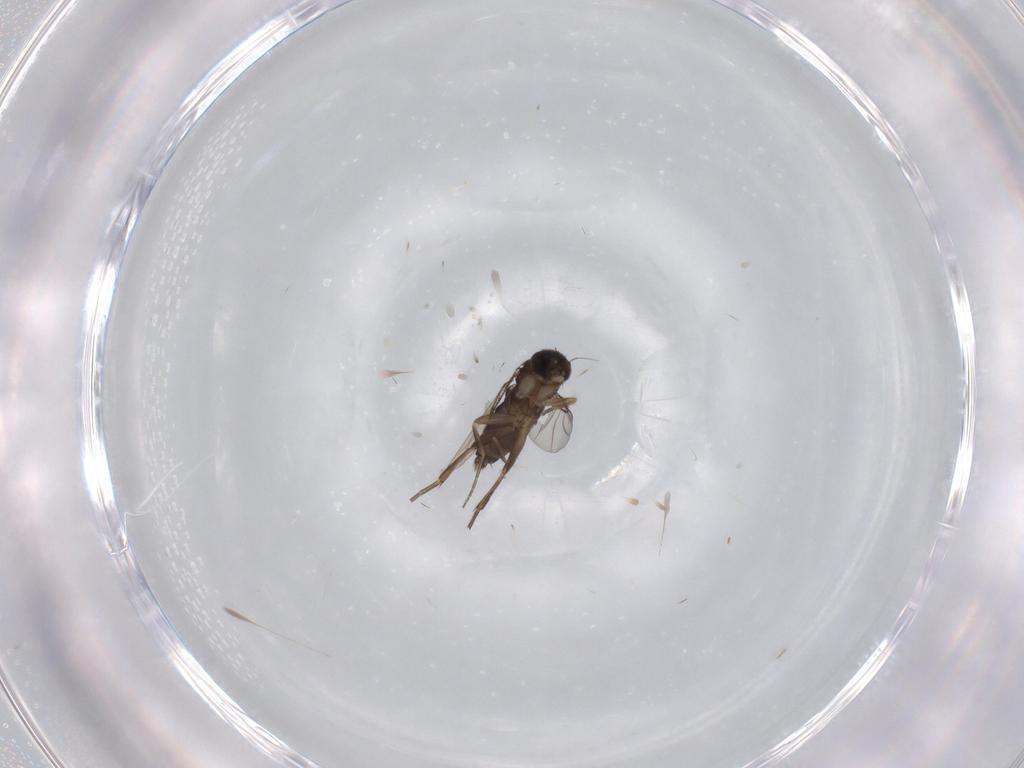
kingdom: Animalia
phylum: Arthropoda
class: Insecta
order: Diptera
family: Phoridae
